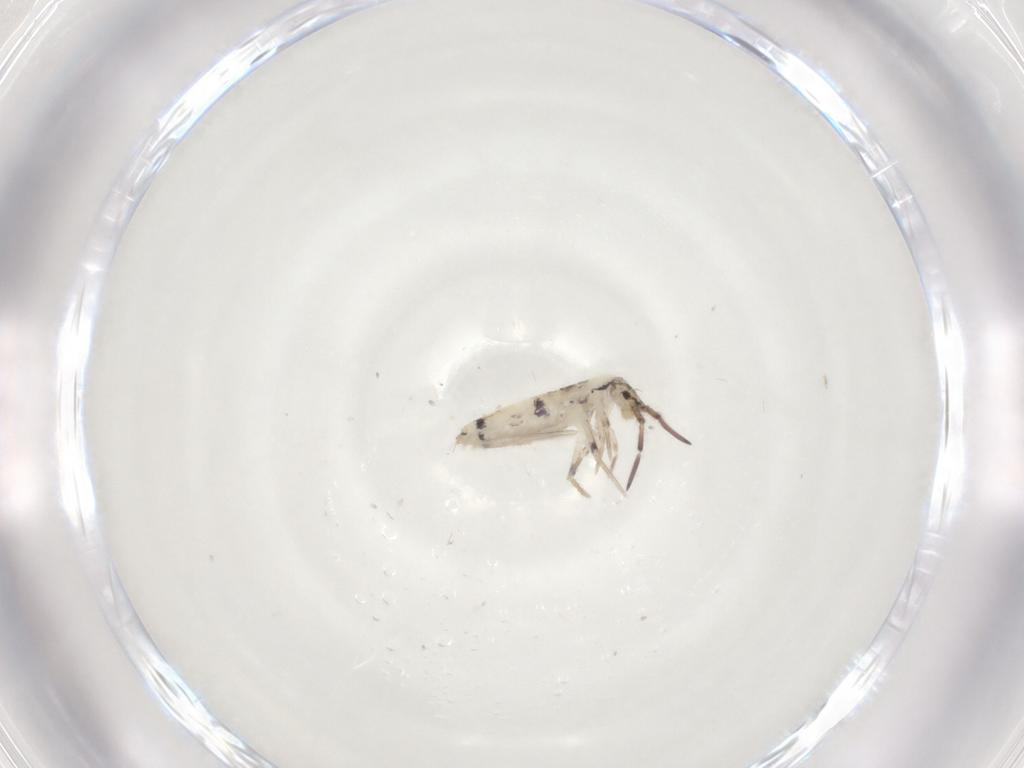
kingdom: Animalia
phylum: Arthropoda
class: Collembola
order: Entomobryomorpha
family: Entomobryidae
